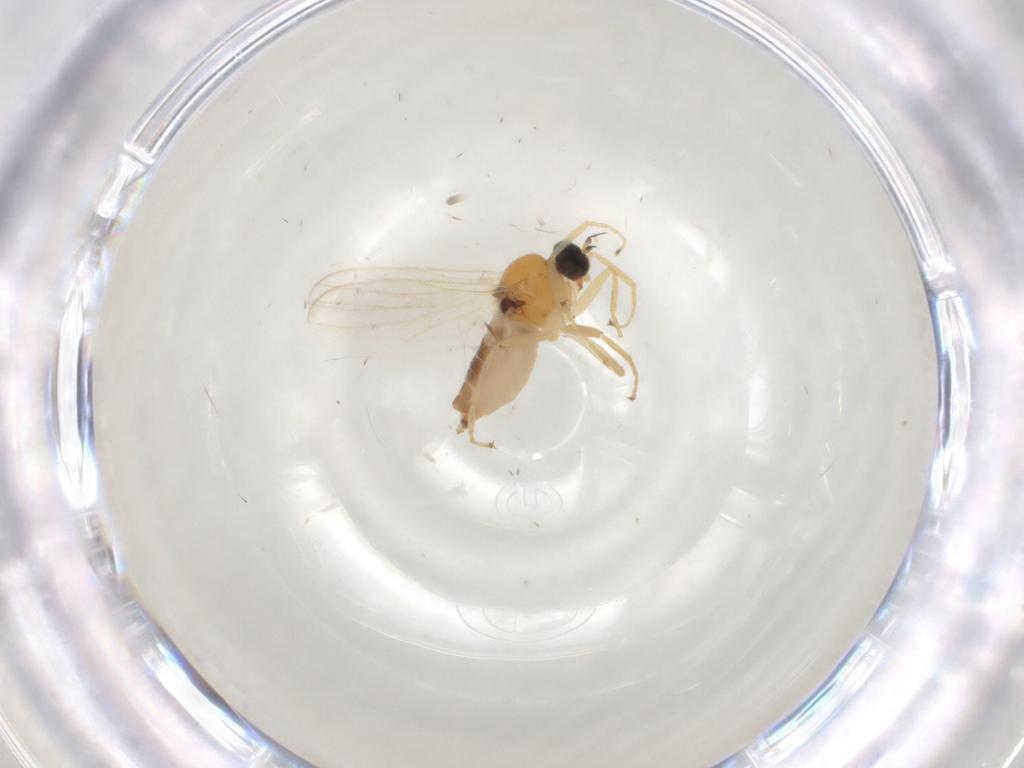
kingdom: Animalia
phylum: Arthropoda
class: Insecta
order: Diptera
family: Hybotidae
